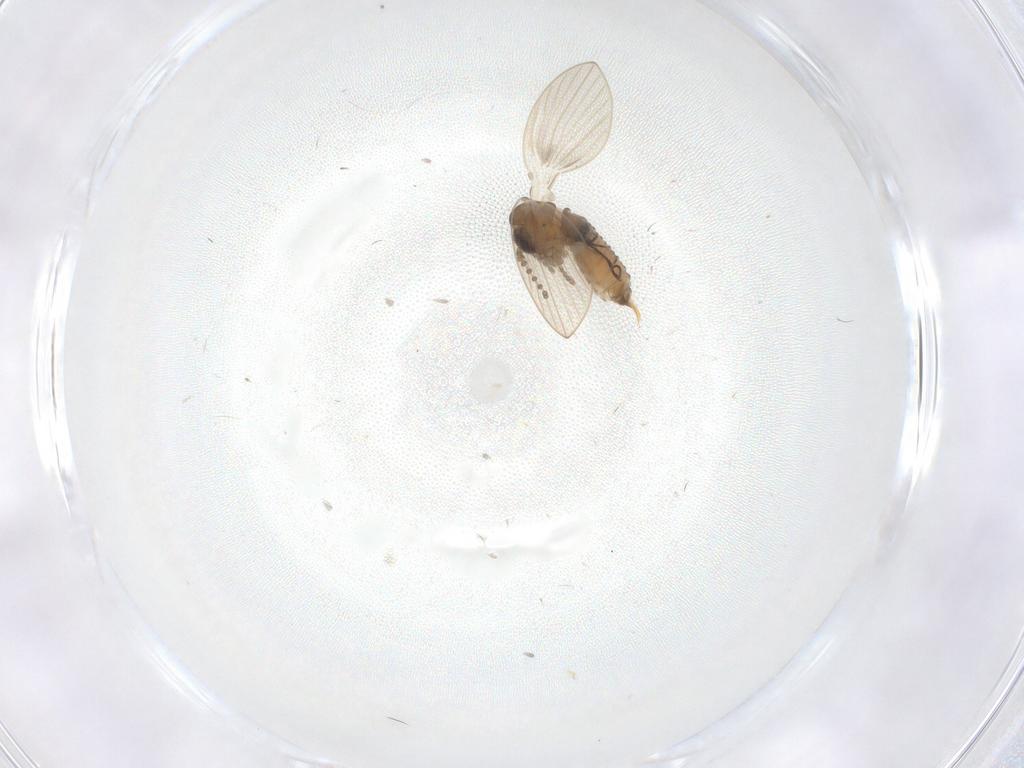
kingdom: Animalia
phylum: Arthropoda
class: Insecta
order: Diptera
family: Psychodidae
